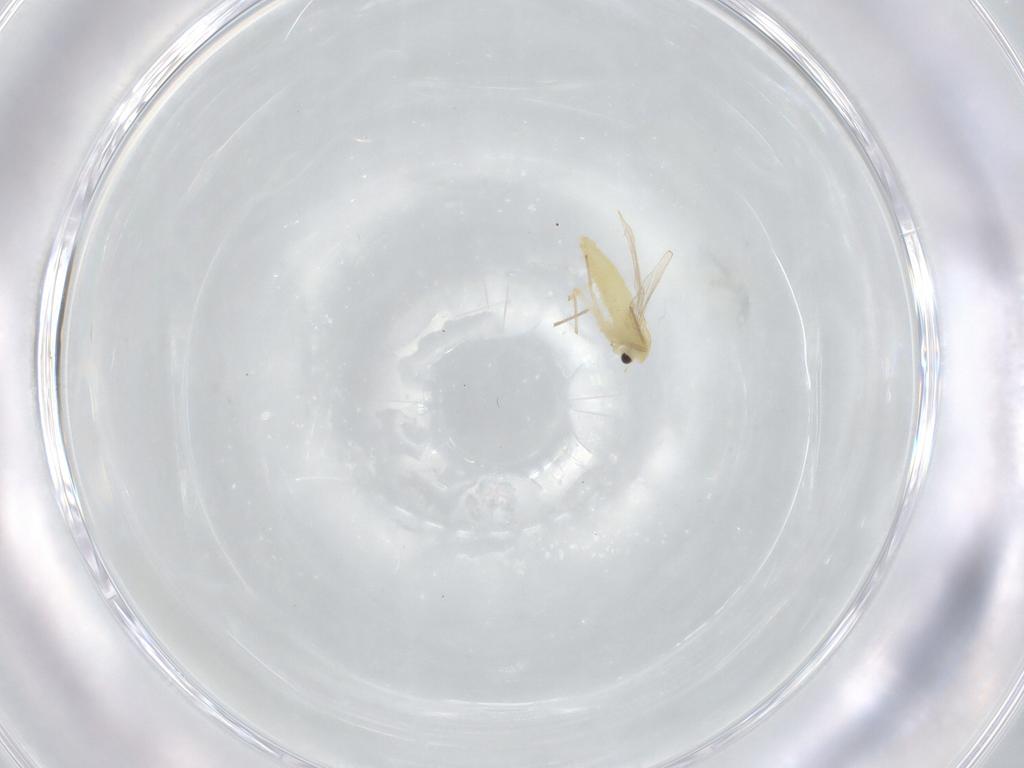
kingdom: Animalia
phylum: Arthropoda
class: Insecta
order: Diptera
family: Chironomidae
